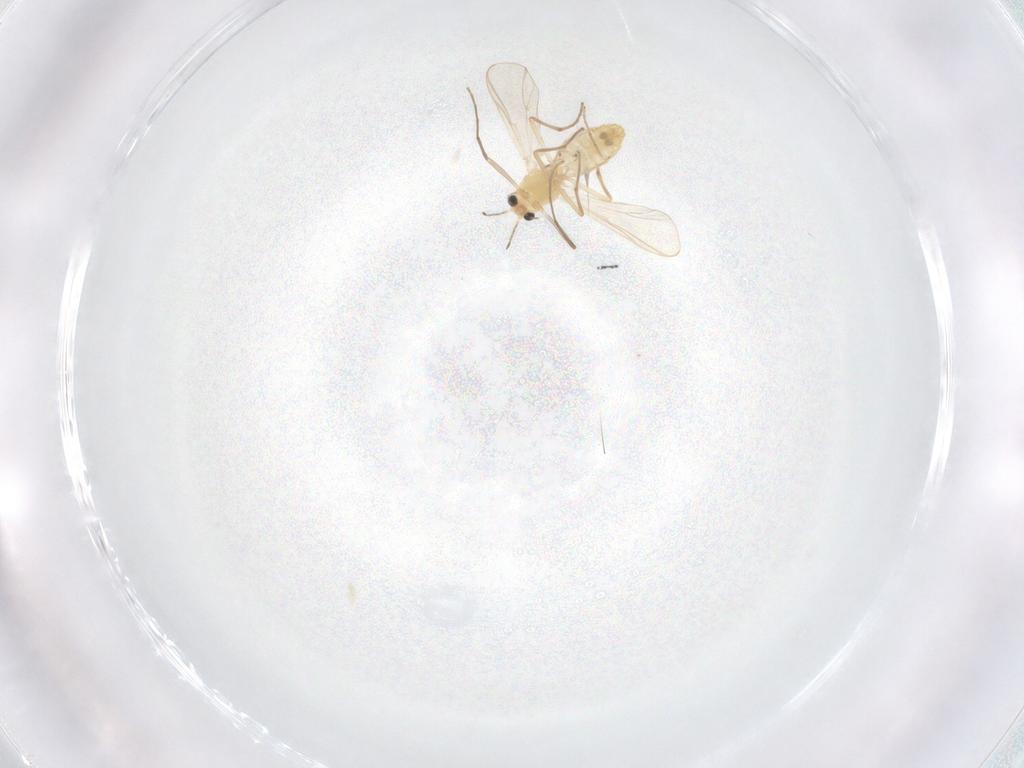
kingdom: Animalia
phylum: Arthropoda
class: Insecta
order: Diptera
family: Chironomidae
